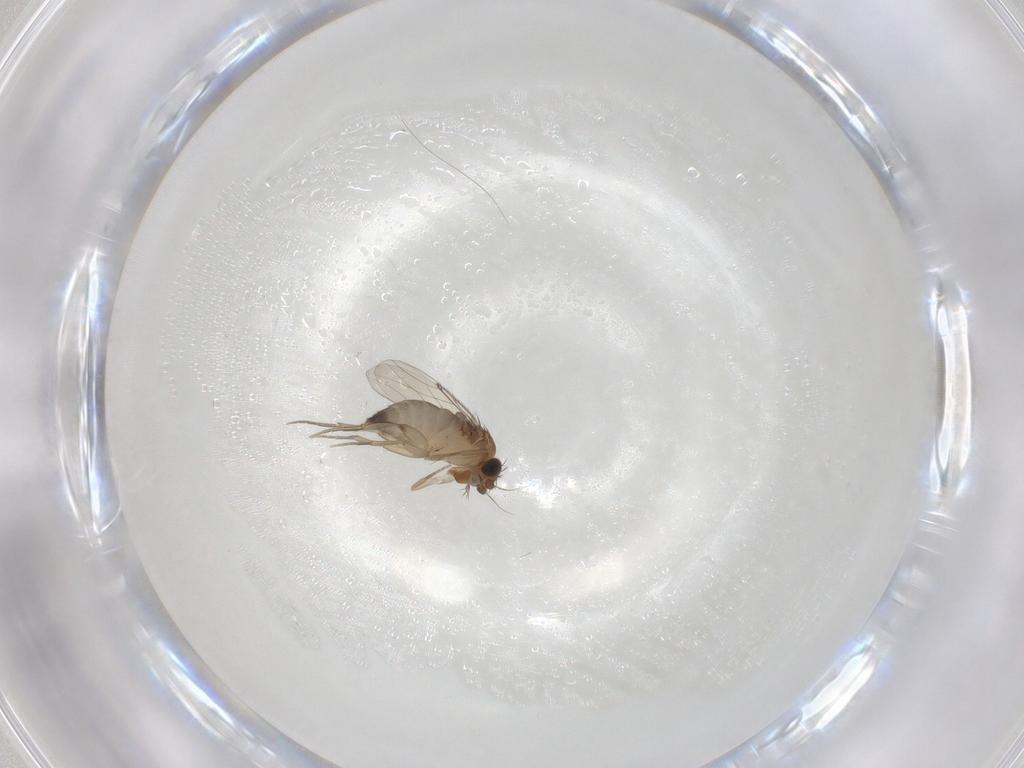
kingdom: Animalia
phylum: Arthropoda
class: Insecta
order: Diptera
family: Phoridae
